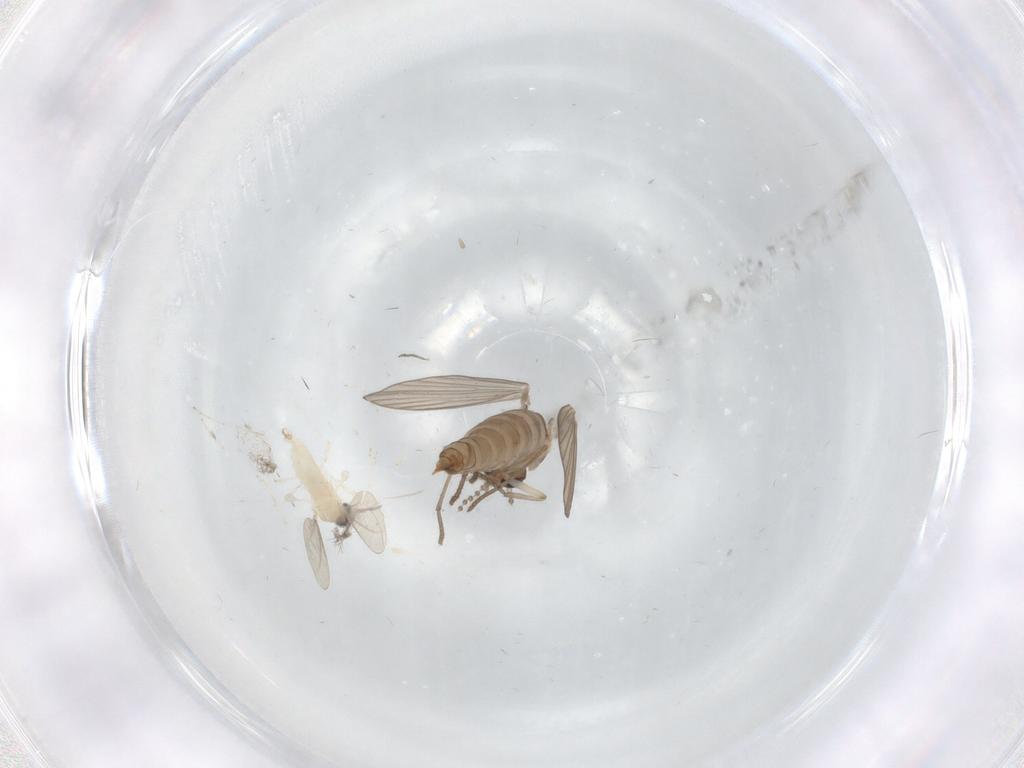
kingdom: Animalia
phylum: Arthropoda
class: Insecta
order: Diptera
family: Psychodidae
